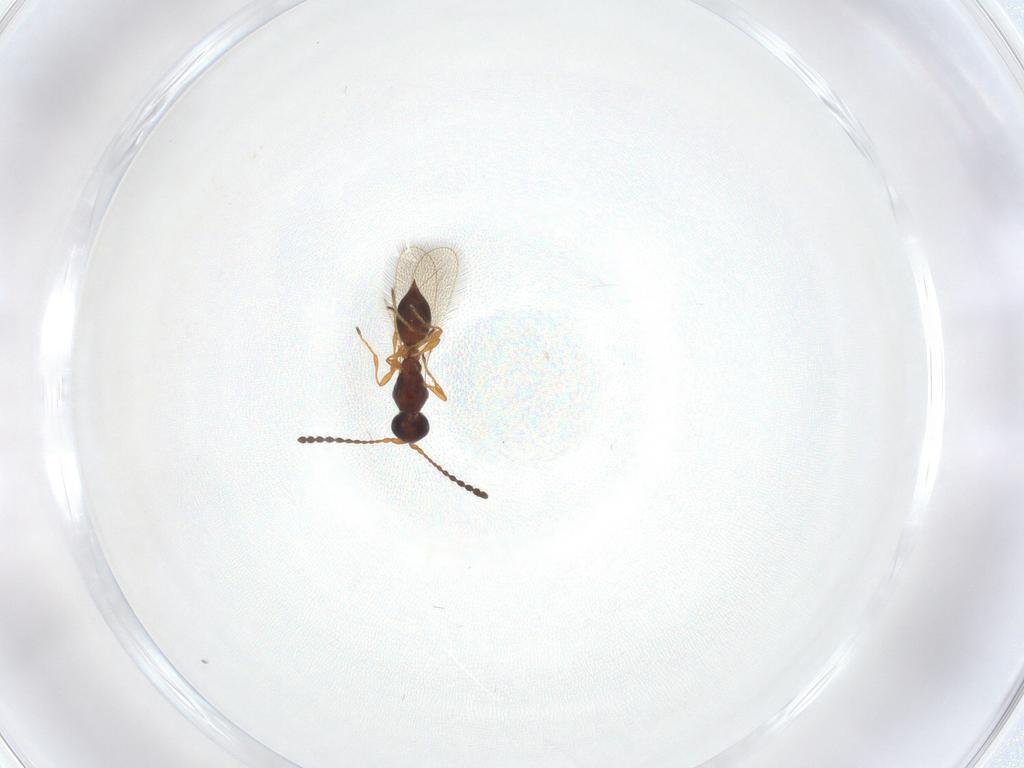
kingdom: Animalia
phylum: Arthropoda
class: Insecta
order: Hymenoptera
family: Diapriidae
